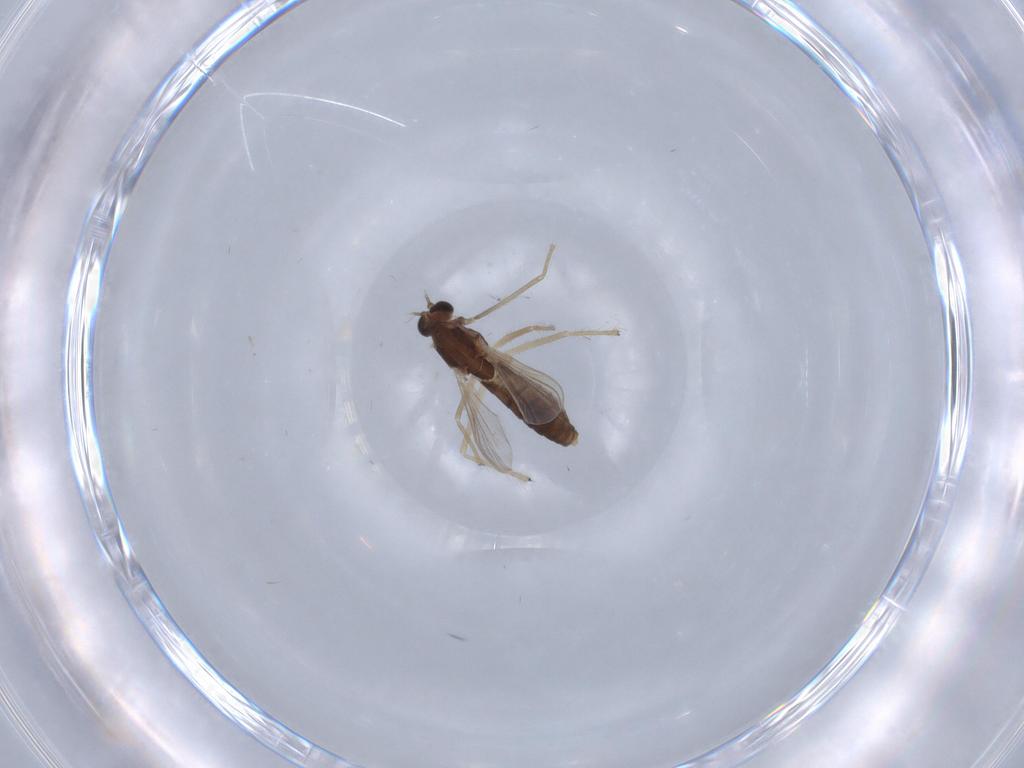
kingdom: Animalia
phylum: Arthropoda
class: Insecta
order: Diptera
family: Chironomidae
